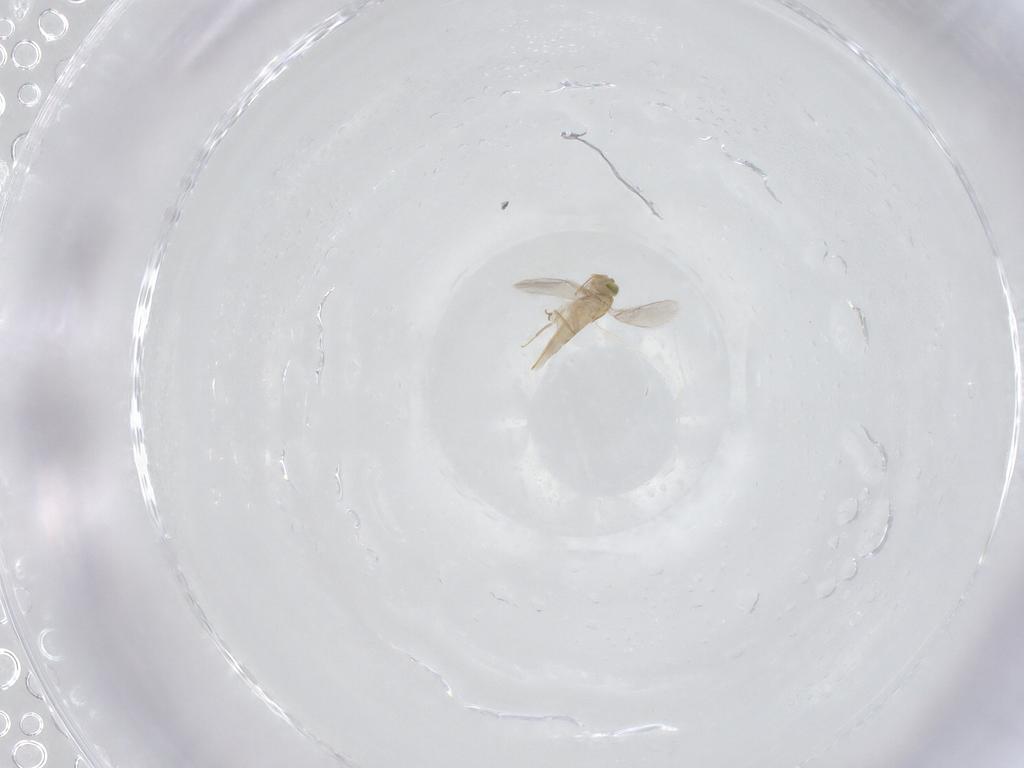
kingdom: Animalia
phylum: Arthropoda
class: Insecta
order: Hymenoptera
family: Aphelinidae
